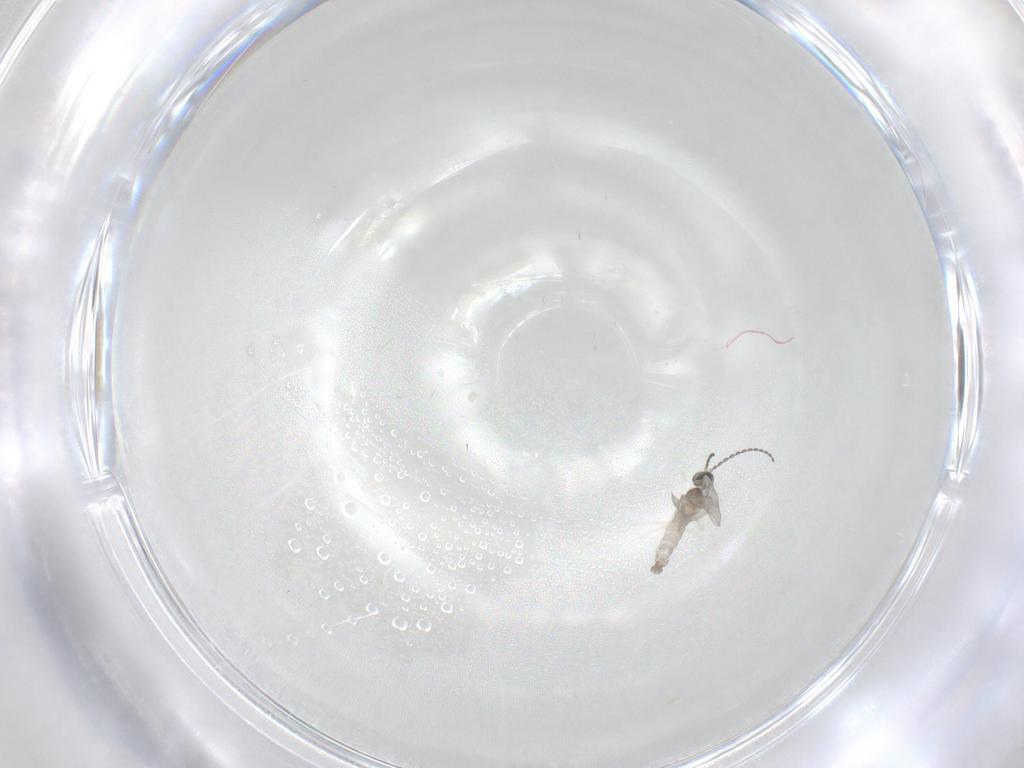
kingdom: Animalia
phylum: Arthropoda
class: Insecta
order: Diptera
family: Cecidomyiidae
